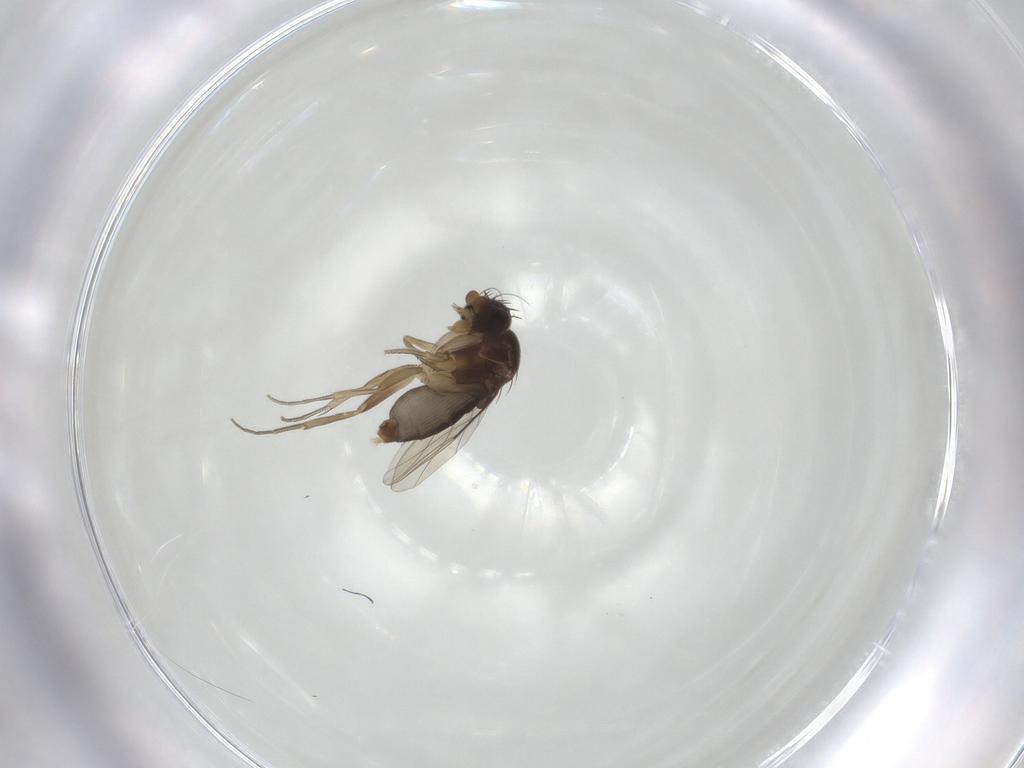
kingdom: Animalia
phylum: Arthropoda
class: Insecta
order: Diptera
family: Phoridae
